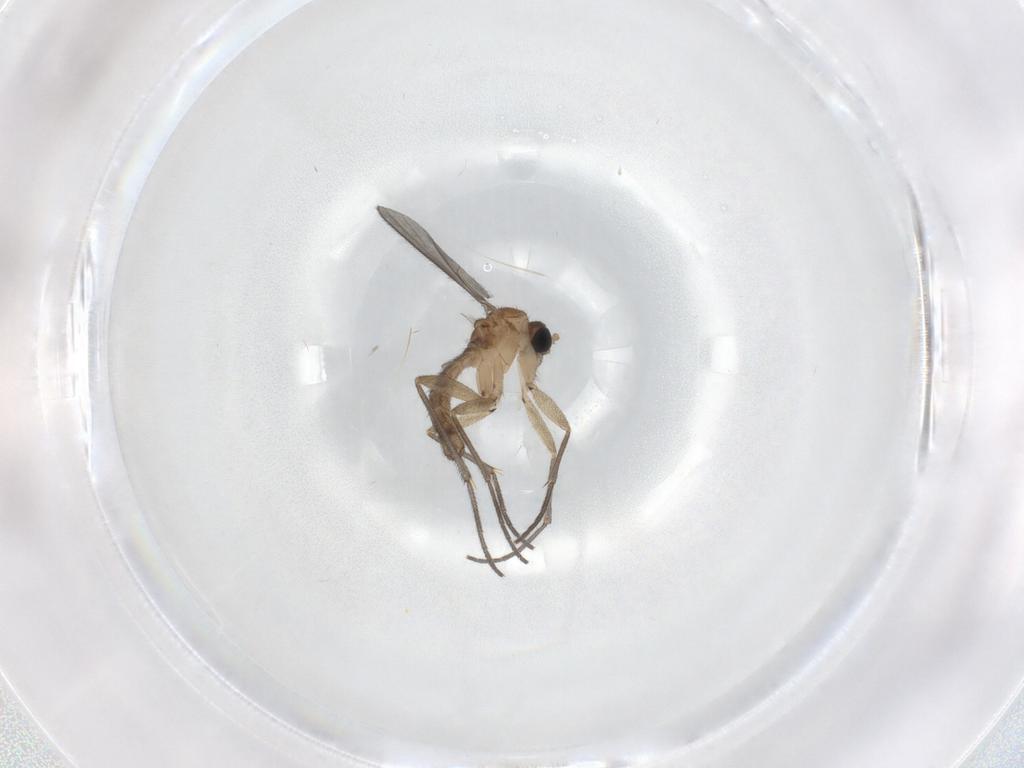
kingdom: Animalia
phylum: Arthropoda
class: Insecta
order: Diptera
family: Sciaridae
